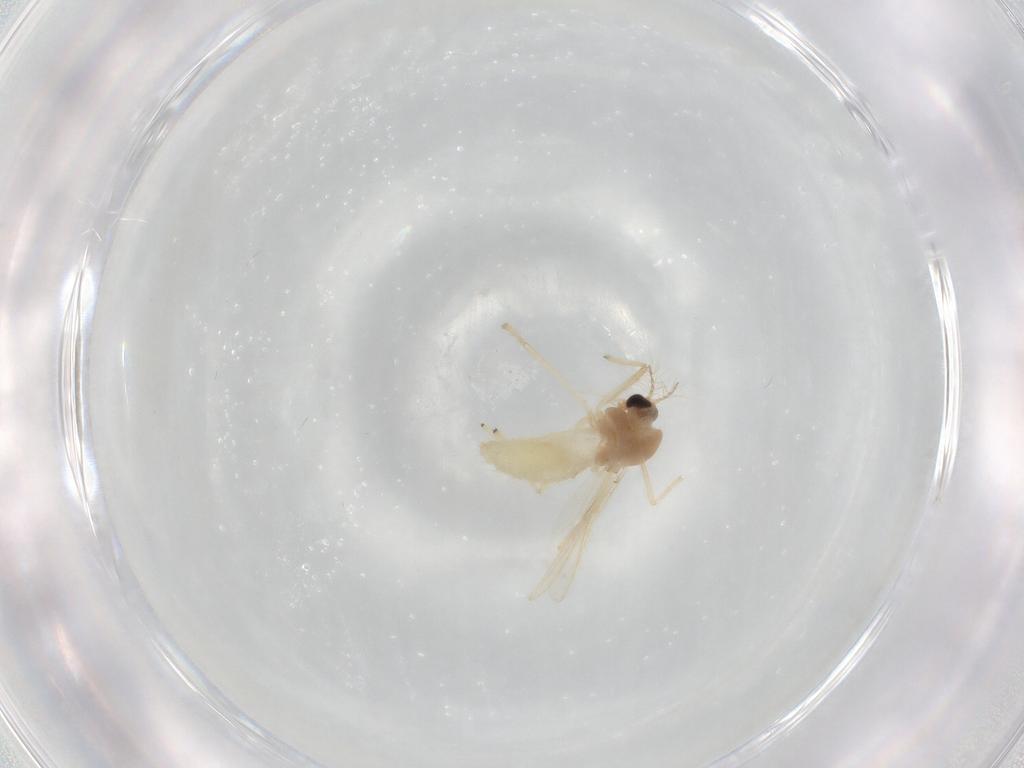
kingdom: Animalia
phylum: Arthropoda
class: Insecta
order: Diptera
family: Chironomidae
